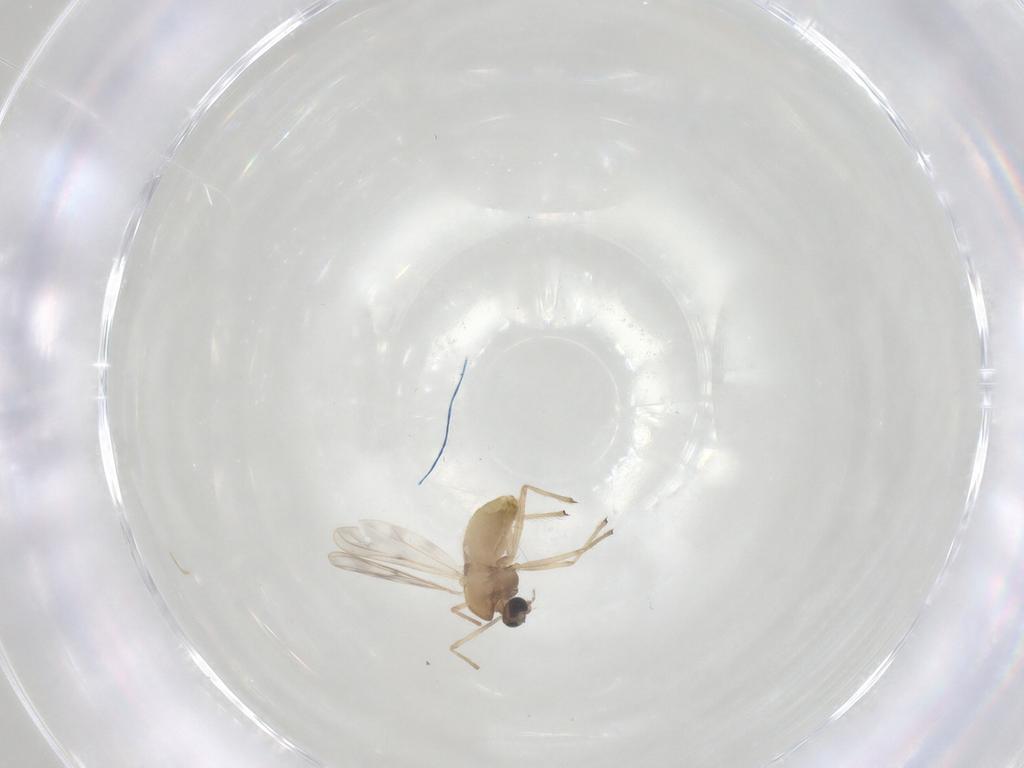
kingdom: Animalia
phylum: Arthropoda
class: Insecta
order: Diptera
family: Chironomidae
